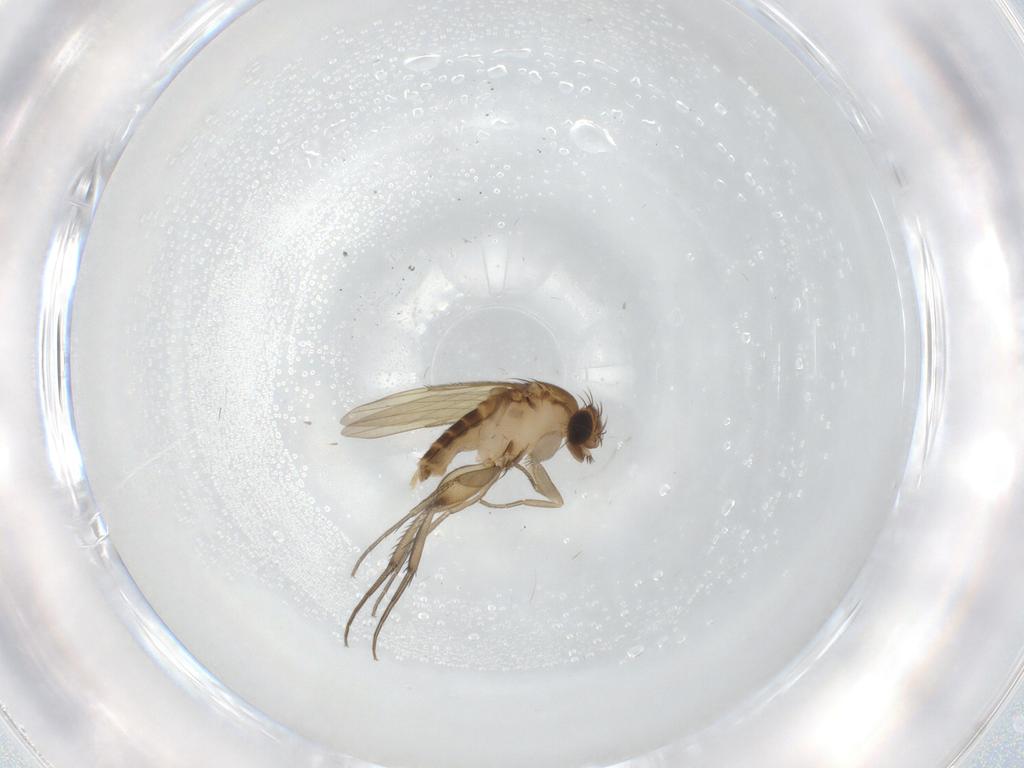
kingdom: Animalia
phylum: Arthropoda
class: Insecta
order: Diptera
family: Phoridae
